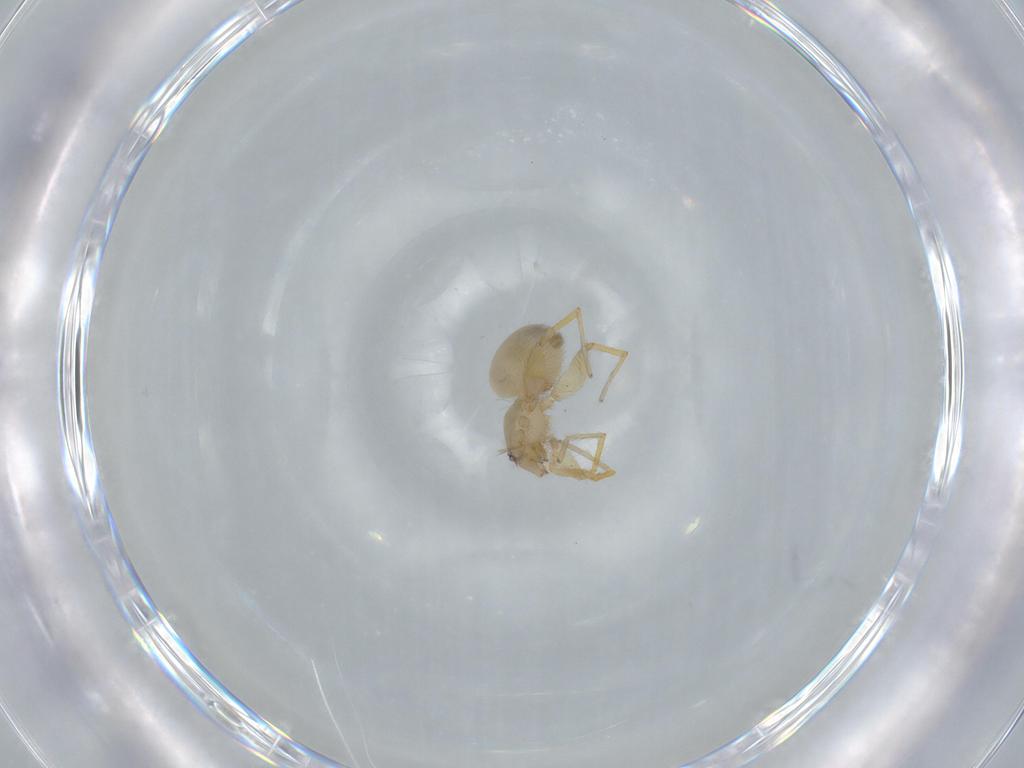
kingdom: Animalia
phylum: Arthropoda
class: Arachnida
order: Araneae
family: Oonopidae
